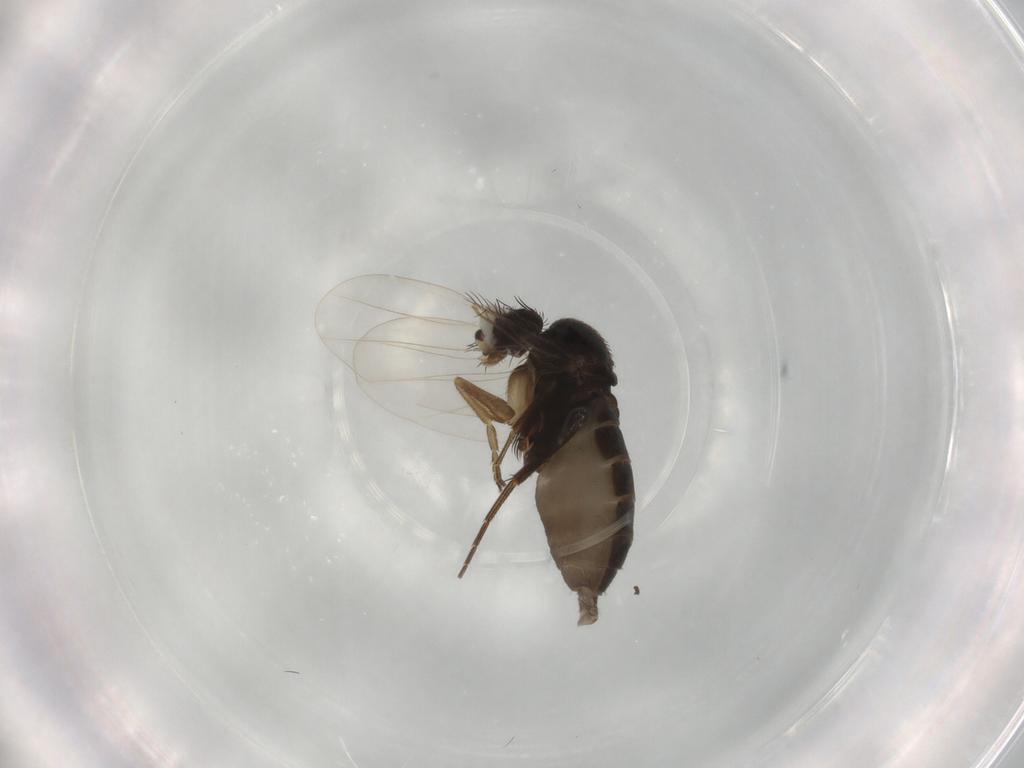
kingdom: Animalia
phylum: Arthropoda
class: Insecta
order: Diptera
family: Phoridae
